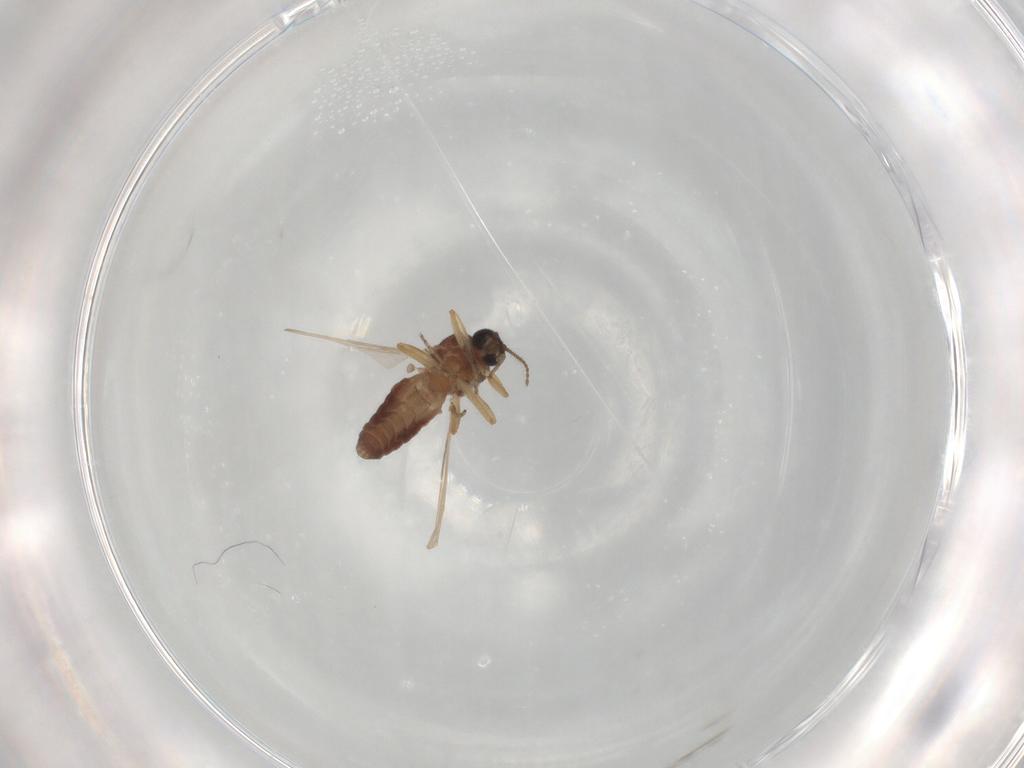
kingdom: Animalia
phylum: Arthropoda
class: Insecta
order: Diptera
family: Ceratopogonidae
